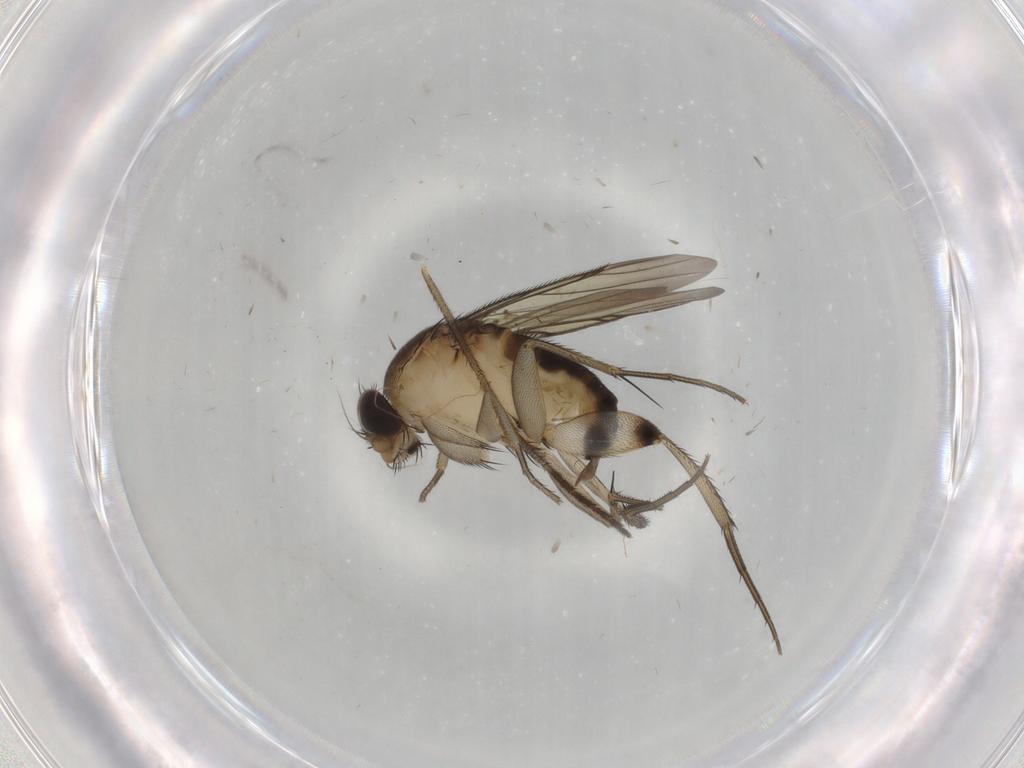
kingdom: Animalia
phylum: Arthropoda
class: Insecta
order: Diptera
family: Phoridae
